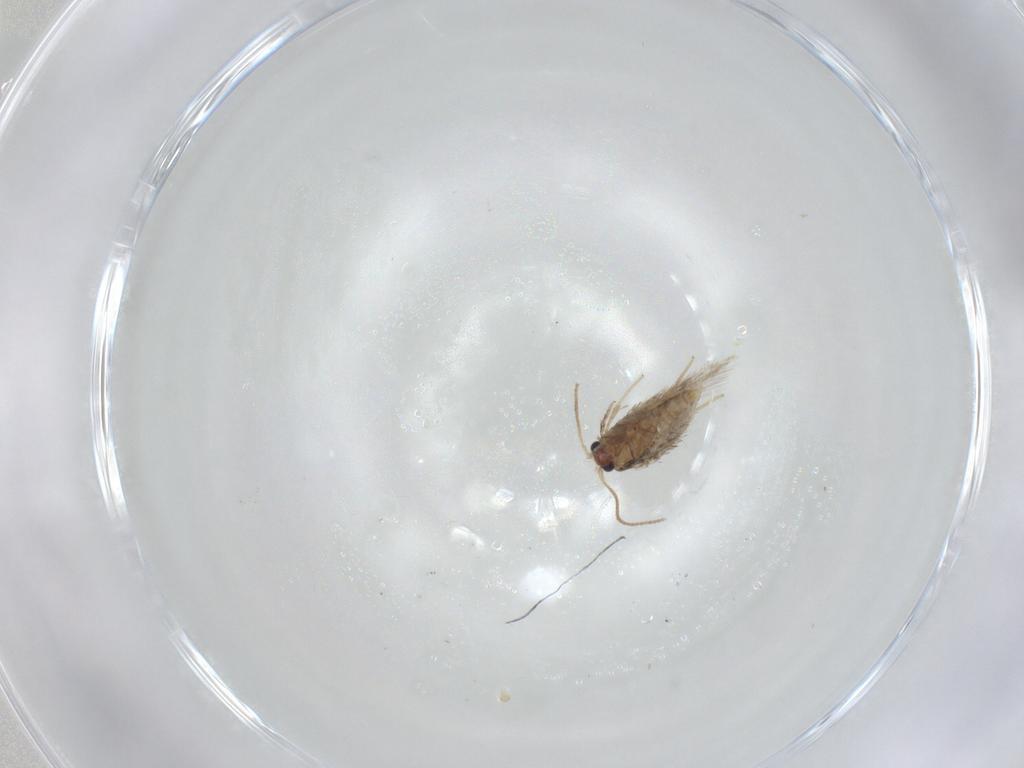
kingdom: Animalia
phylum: Arthropoda
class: Insecta
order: Lepidoptera
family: Nepticulidae
